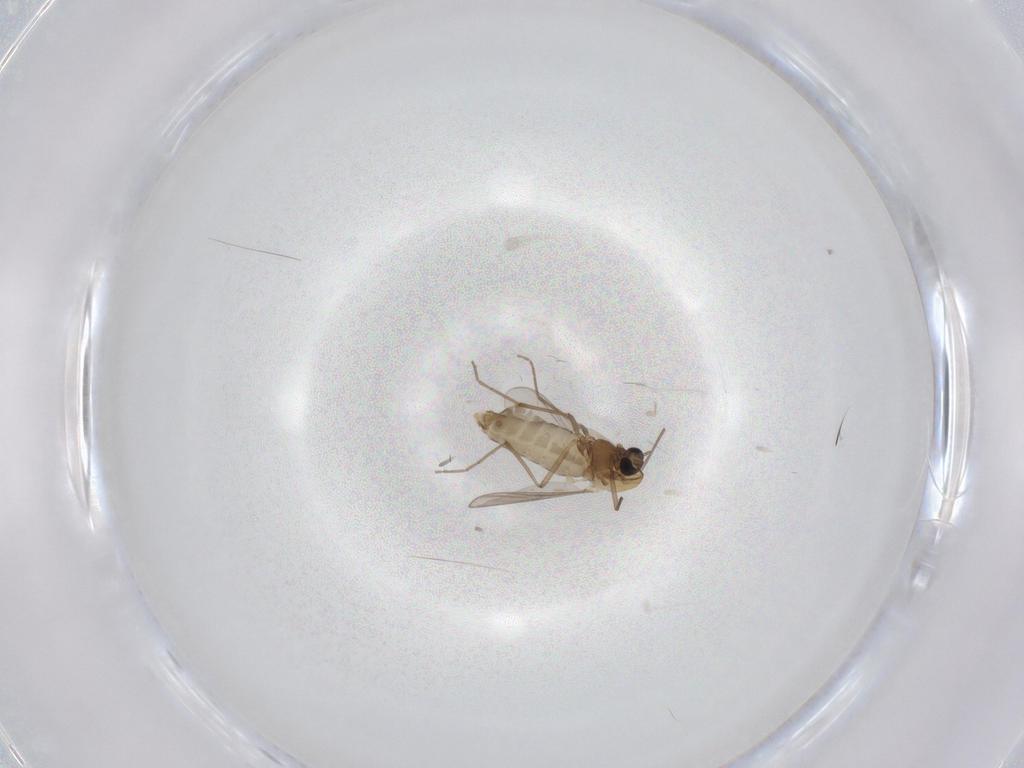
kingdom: Animalia
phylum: Arthropoda
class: Insecta
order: Diptera
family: Chironomidae
